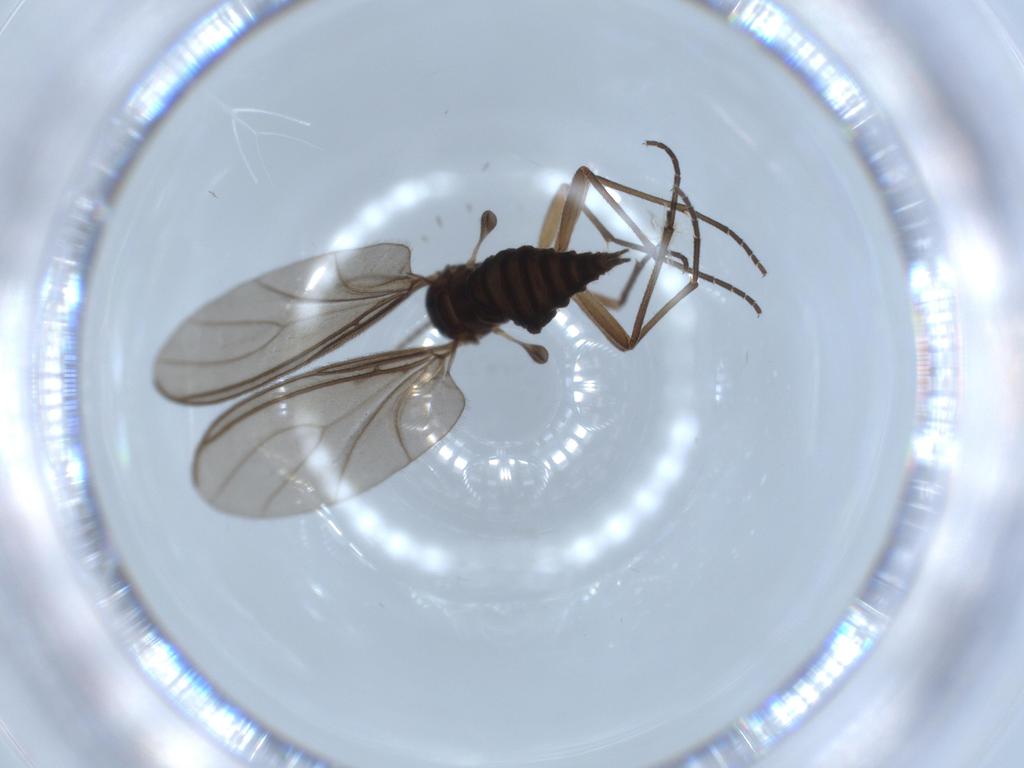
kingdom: Animalia
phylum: Arthropoda
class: Insecta
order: Diptera
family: Sciaridae
